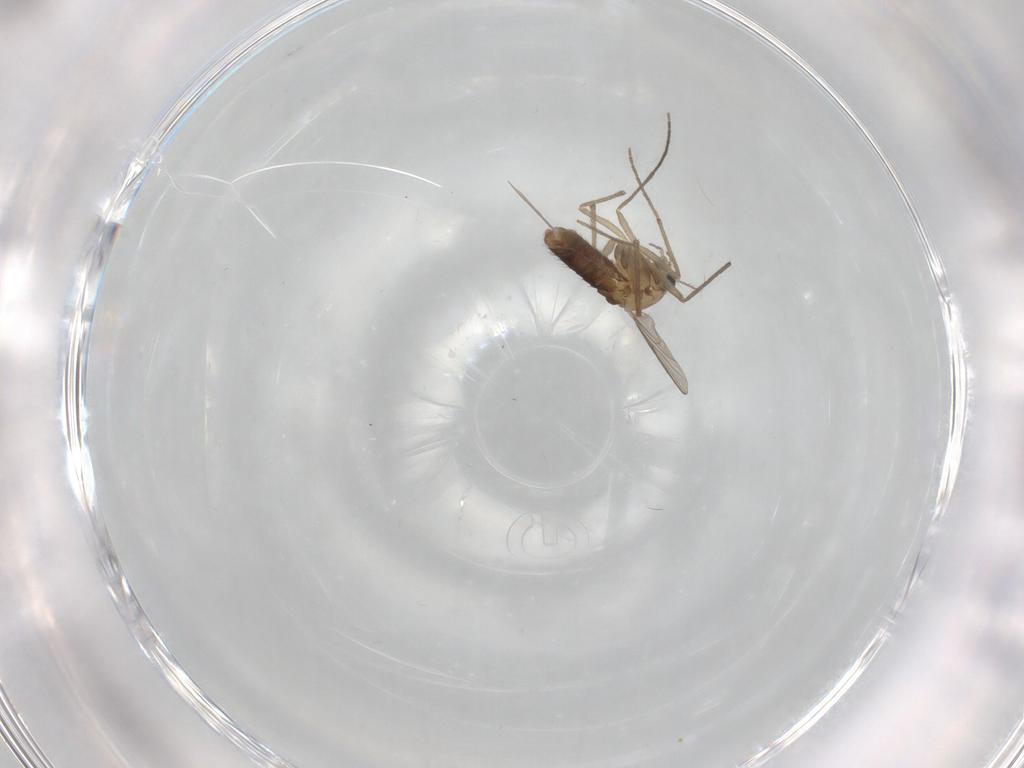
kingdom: Animalia
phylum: Arthropoda
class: Insecta
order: Diptera
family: Chironomidae
